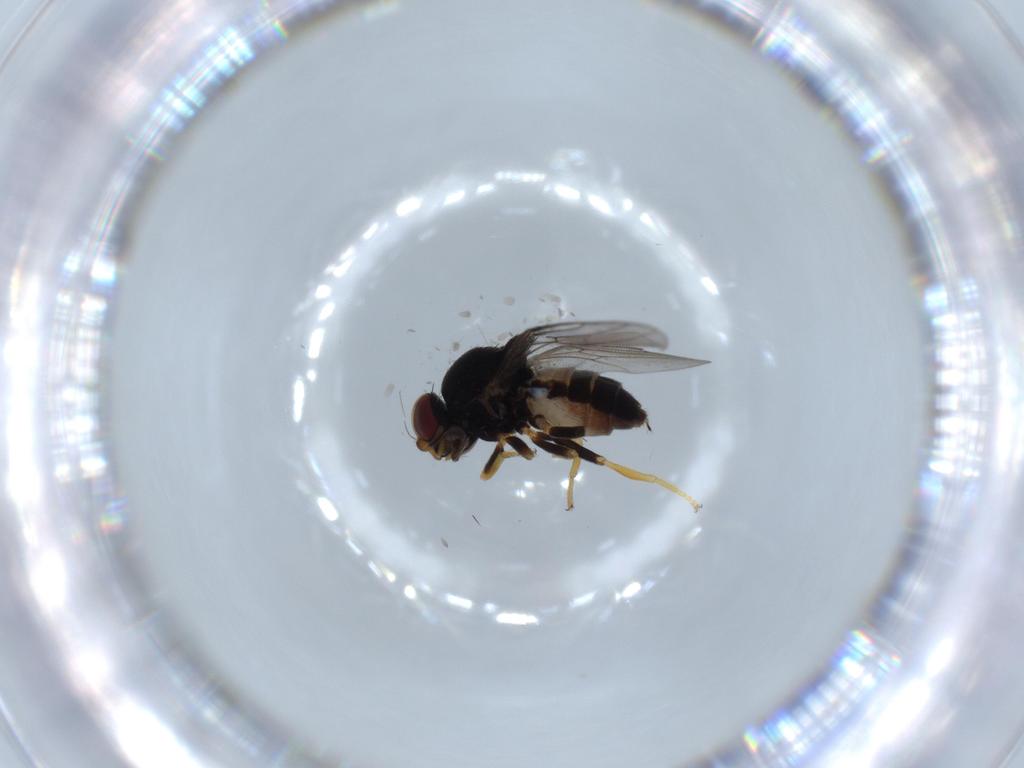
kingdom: Animalia
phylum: Arthropoda
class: Insecta
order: Diptera
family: Chloropidae
